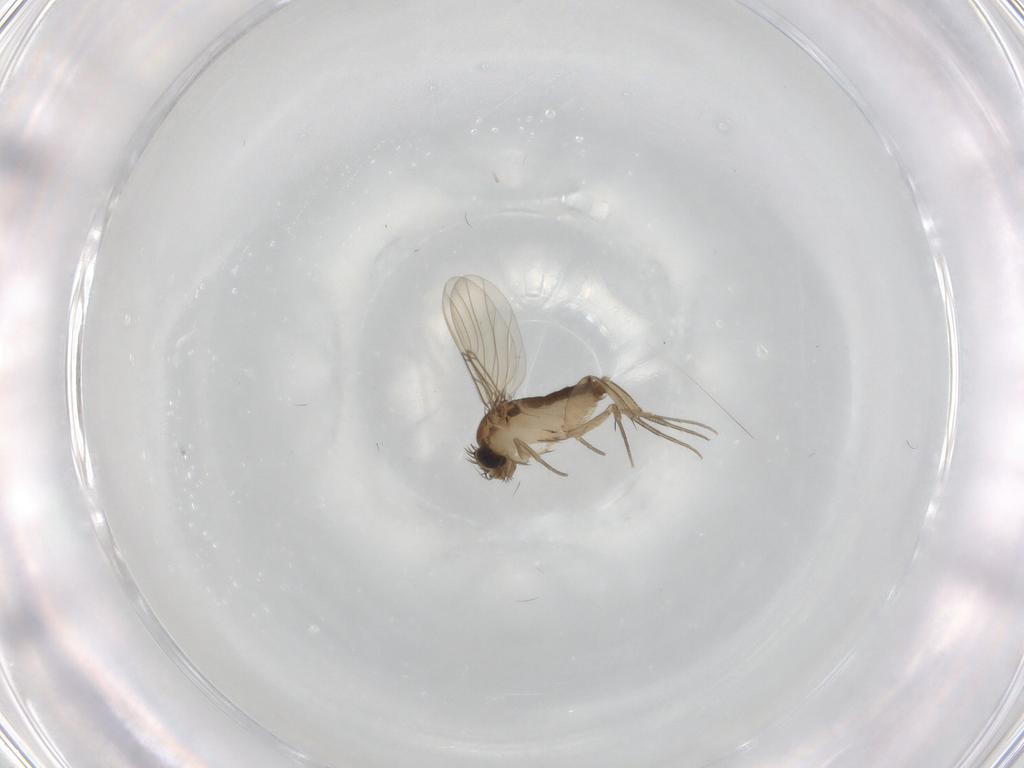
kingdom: Animalia
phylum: Arthropoda
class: Insecta
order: Diptera
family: Phoridae
